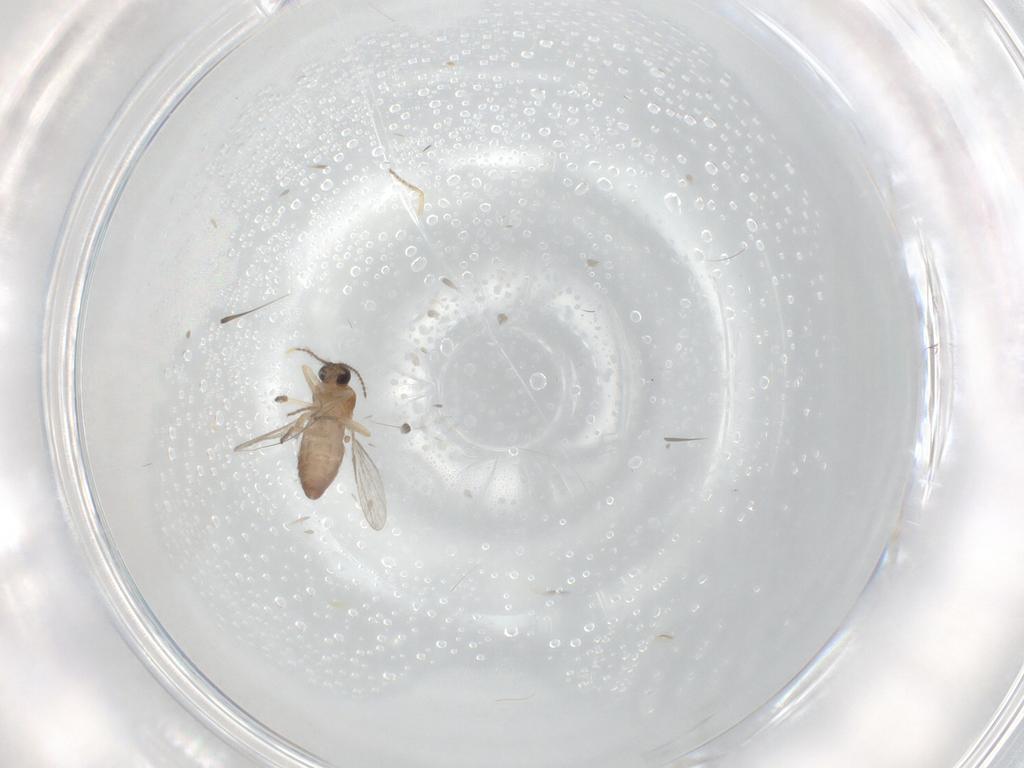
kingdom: Animalia
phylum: Arthropoda
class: Insecta
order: Diptera
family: Ceratopogonidae
